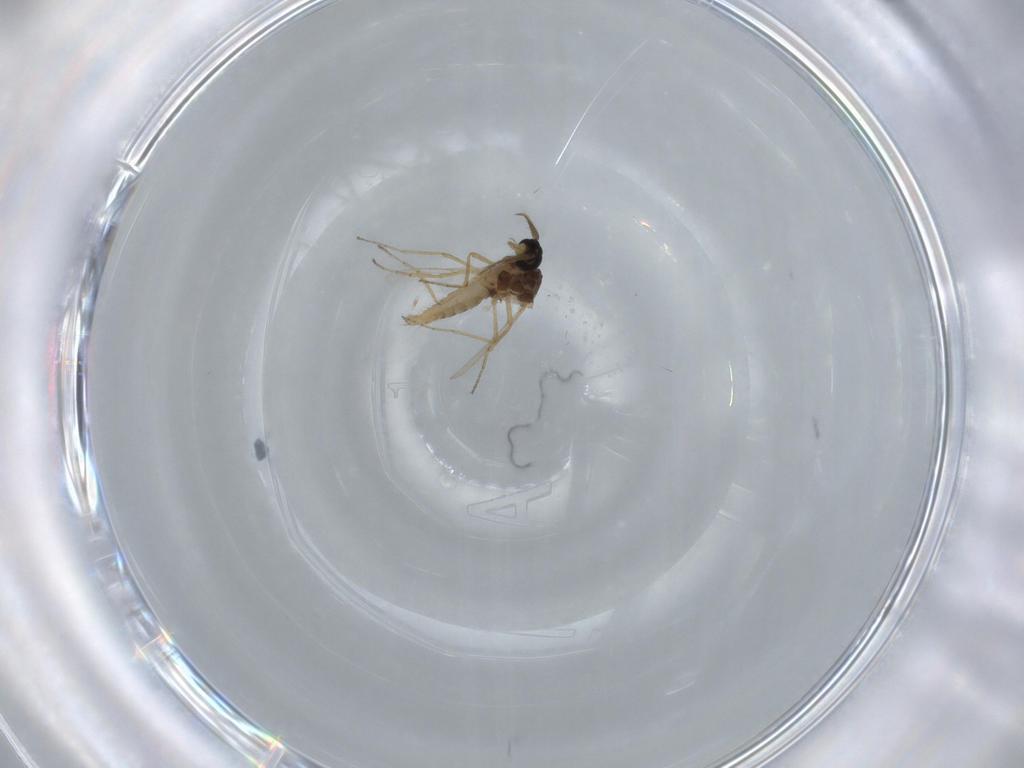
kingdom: Animalia
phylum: Arthropoda
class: Insecta
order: Diptera
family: Ceratopogonidae
